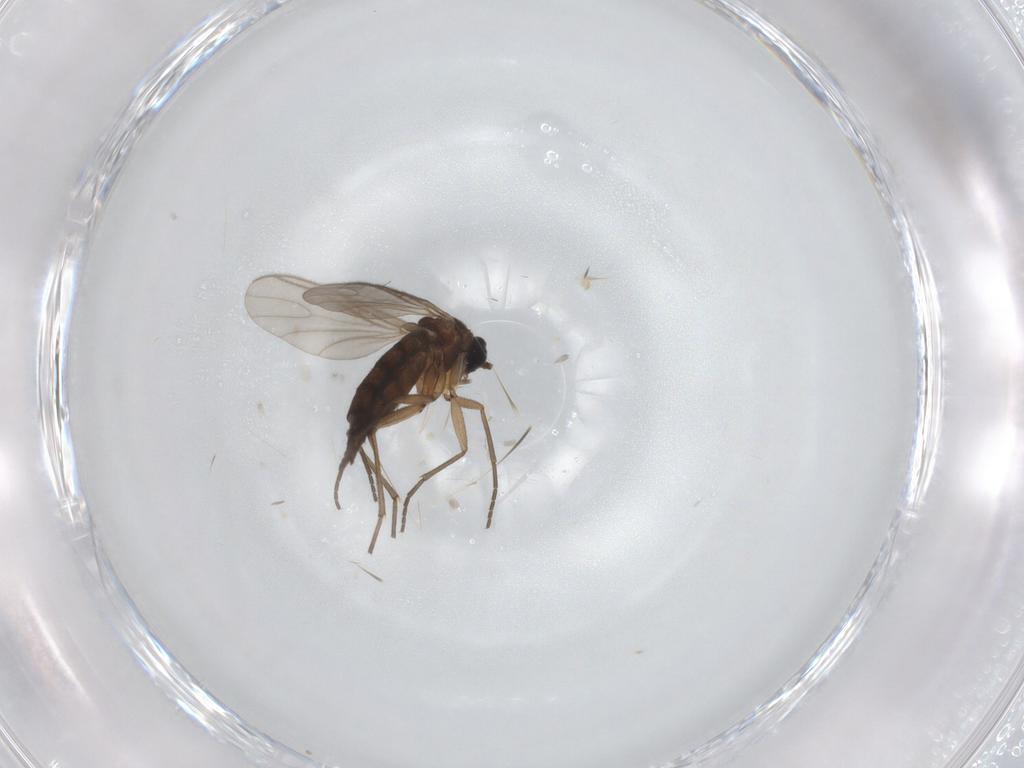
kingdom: Animalia
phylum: Arthropoda
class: Insecta
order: Diptera
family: Sciaridae
